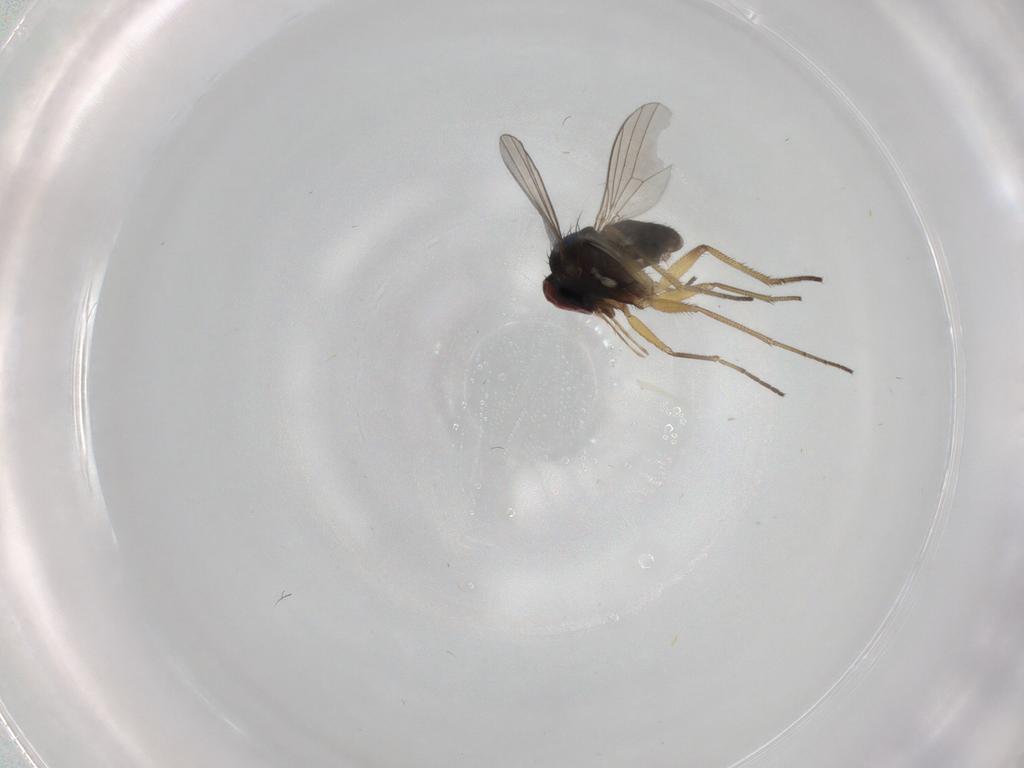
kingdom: Animalia
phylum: Arthropoda
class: Insecta
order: Diptera
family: Dolichopodidae
